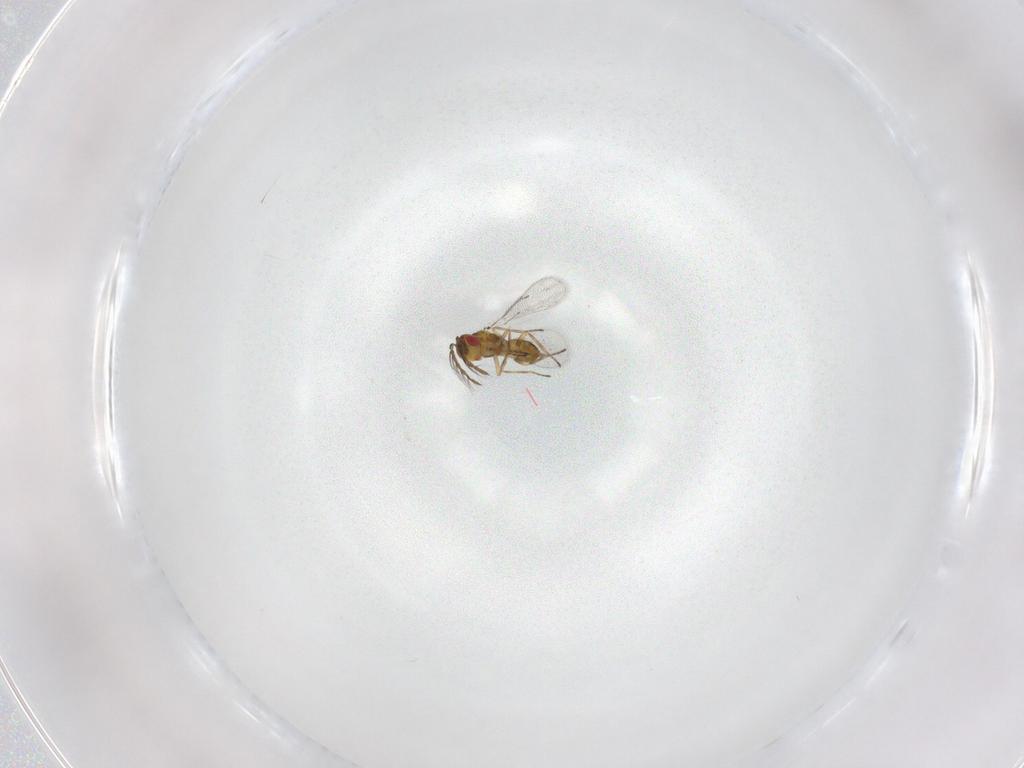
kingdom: Animalia
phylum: Arthropoda
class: Insecta
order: Hymenoptera
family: Eulophidae
